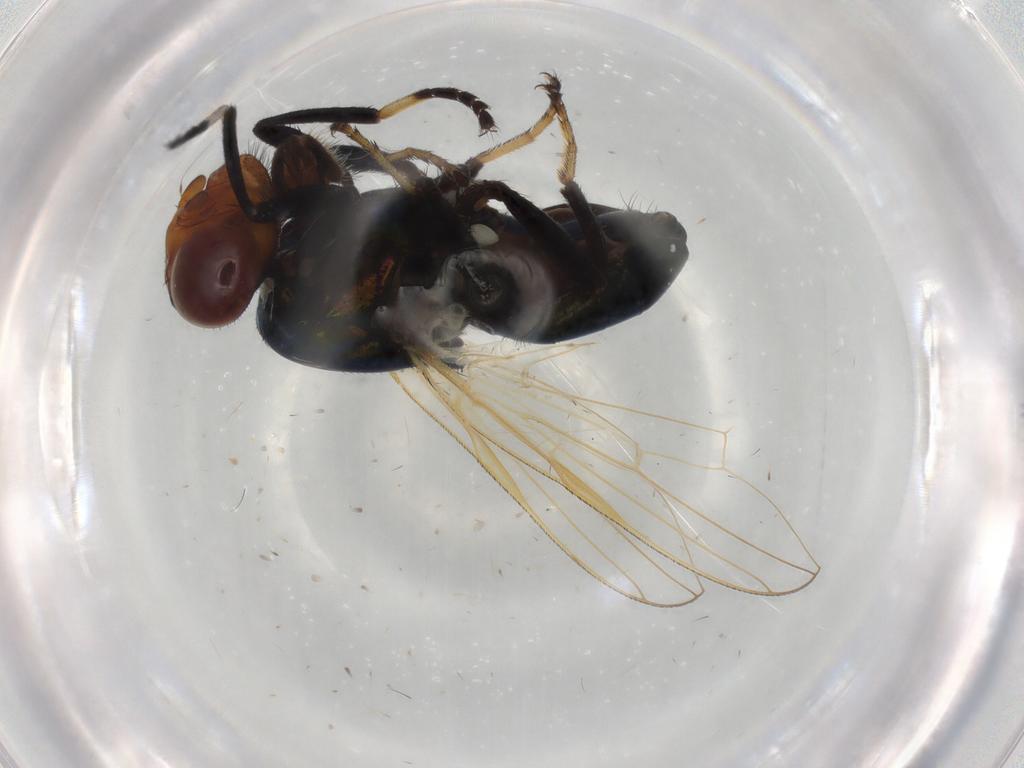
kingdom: Animalia
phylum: Arthropoda
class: Insecta
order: Diptera
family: Ulidiidae
